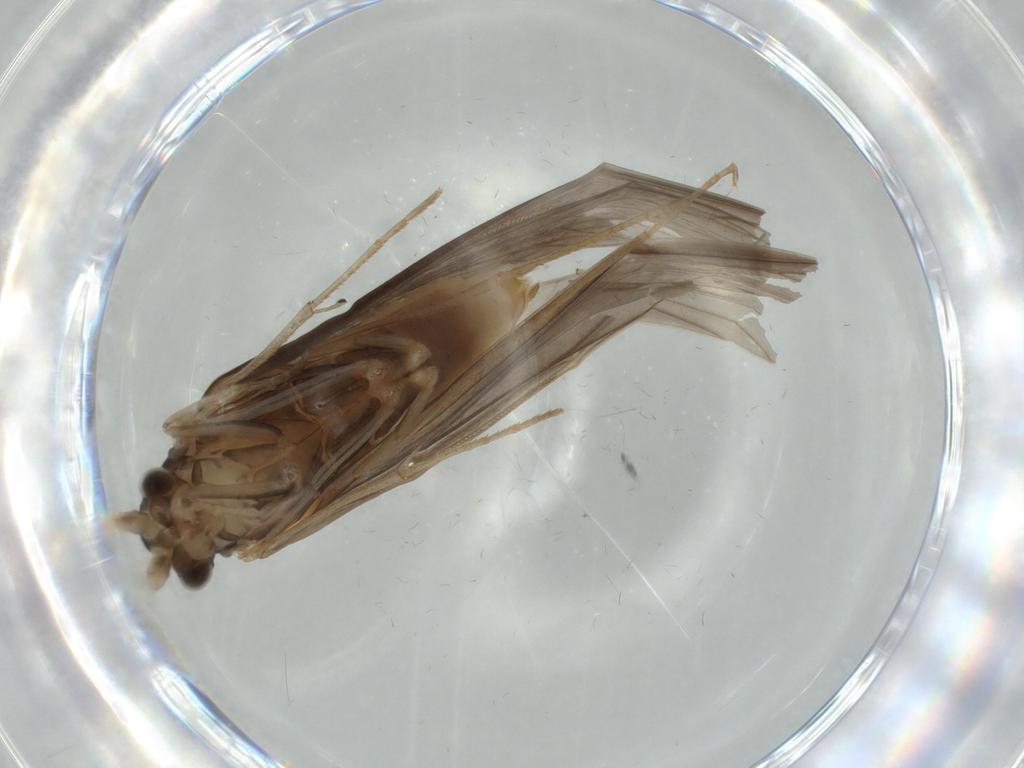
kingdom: Animalia
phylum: Arthropoda
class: Insecta
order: Trichoptera
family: Leptoceridae
